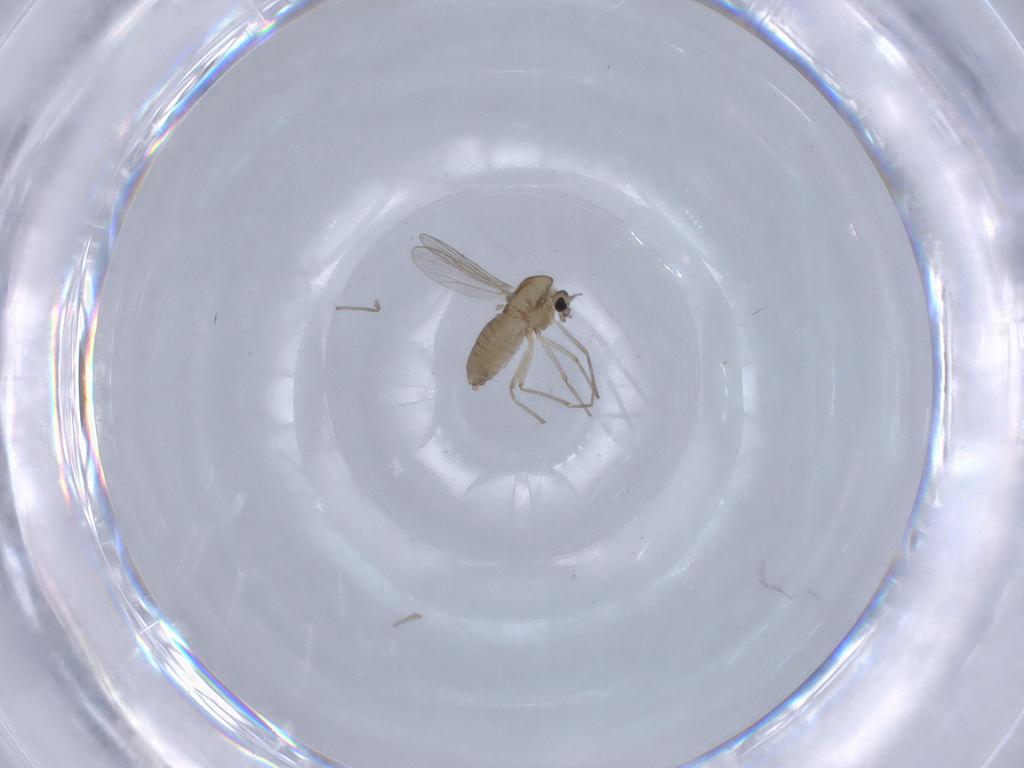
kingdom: Animalia
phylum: Arthropoda
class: Insecta
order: Diptera
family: Chironomidae
